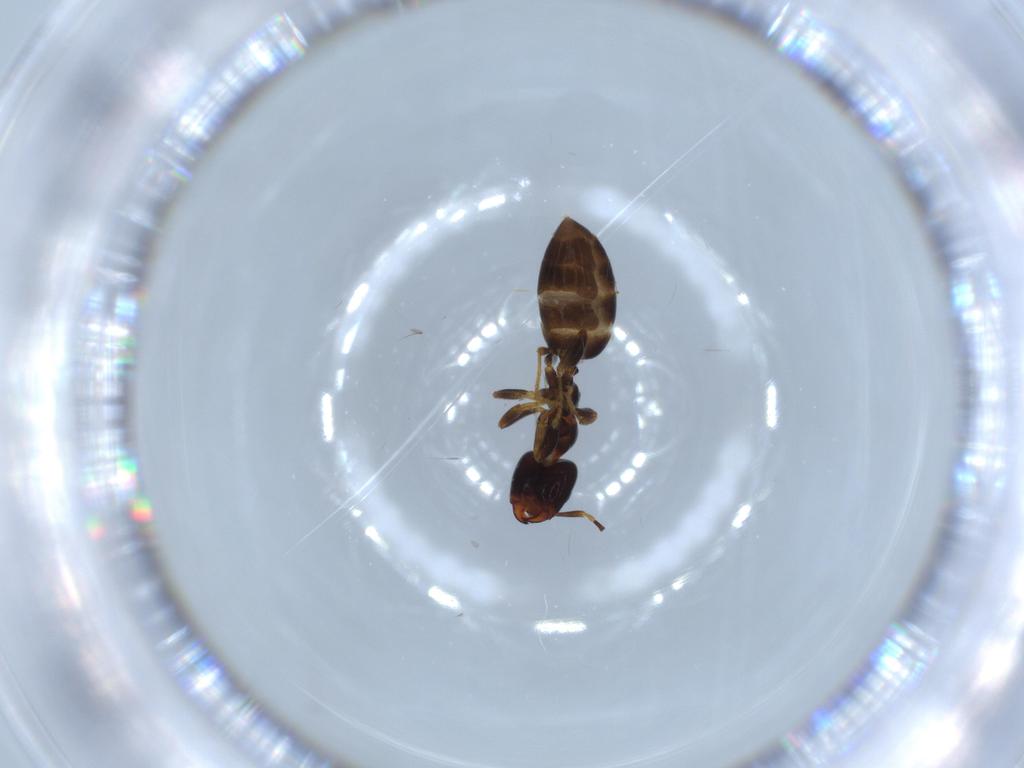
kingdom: Animalia
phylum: Arthropoda
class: Insecta
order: Hymenoptera
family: Formicidae
